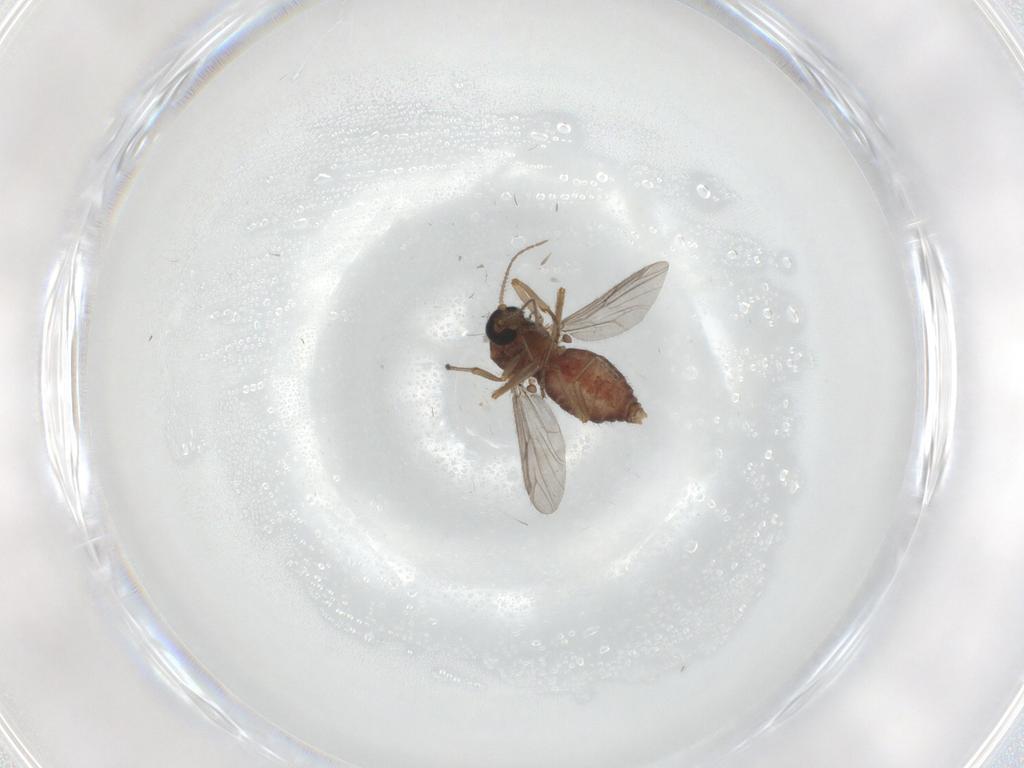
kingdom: Animalia
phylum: Arthropoda
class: Insecta
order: Diptera
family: Ceratopogonidae
